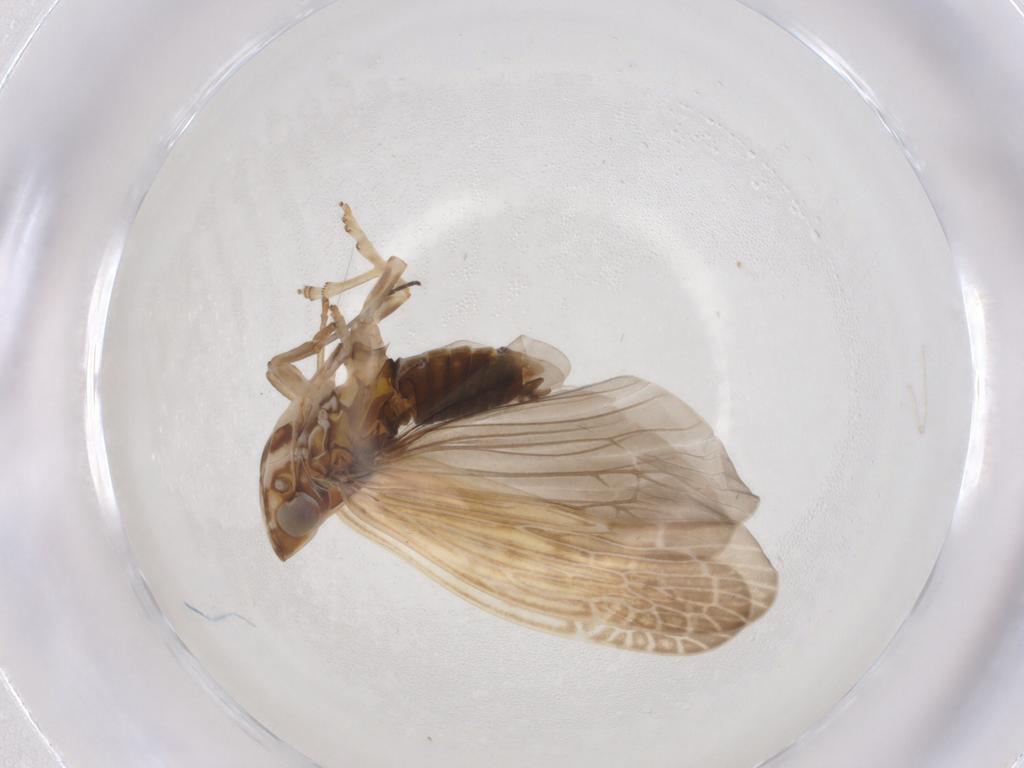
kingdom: Animalia
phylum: Arthropoda
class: Insecta
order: Hemiptera
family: Achilidae
